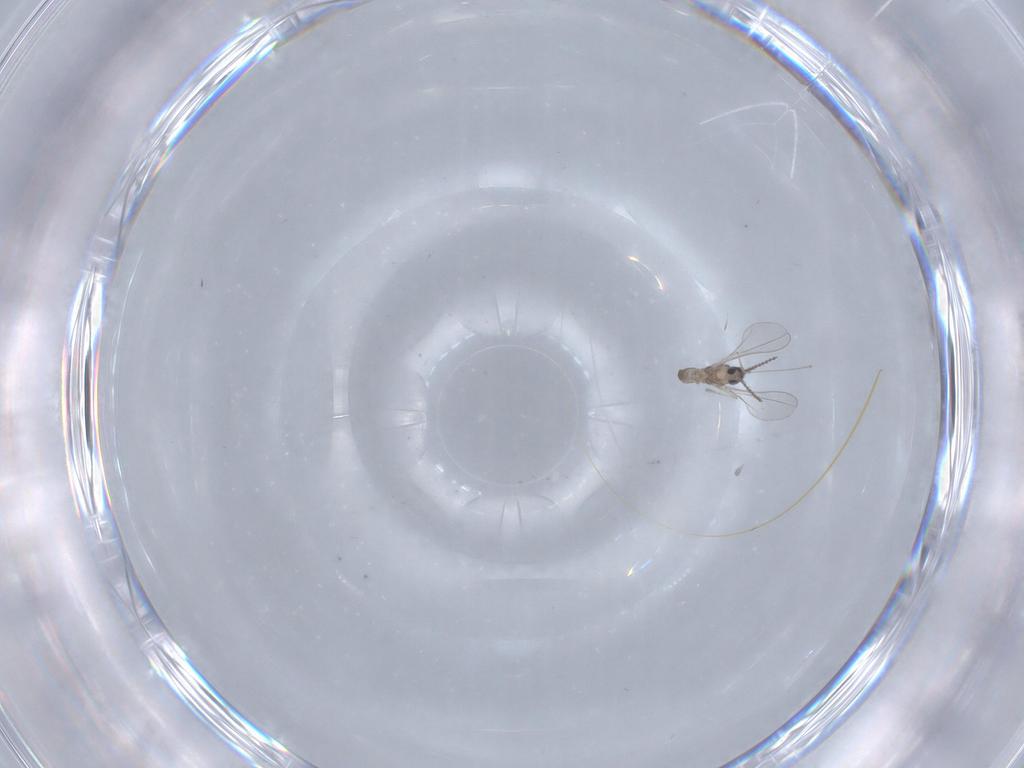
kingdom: Animalia
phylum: Arthropoda
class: Insecta
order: Diptera
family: Cecidomyiidae
